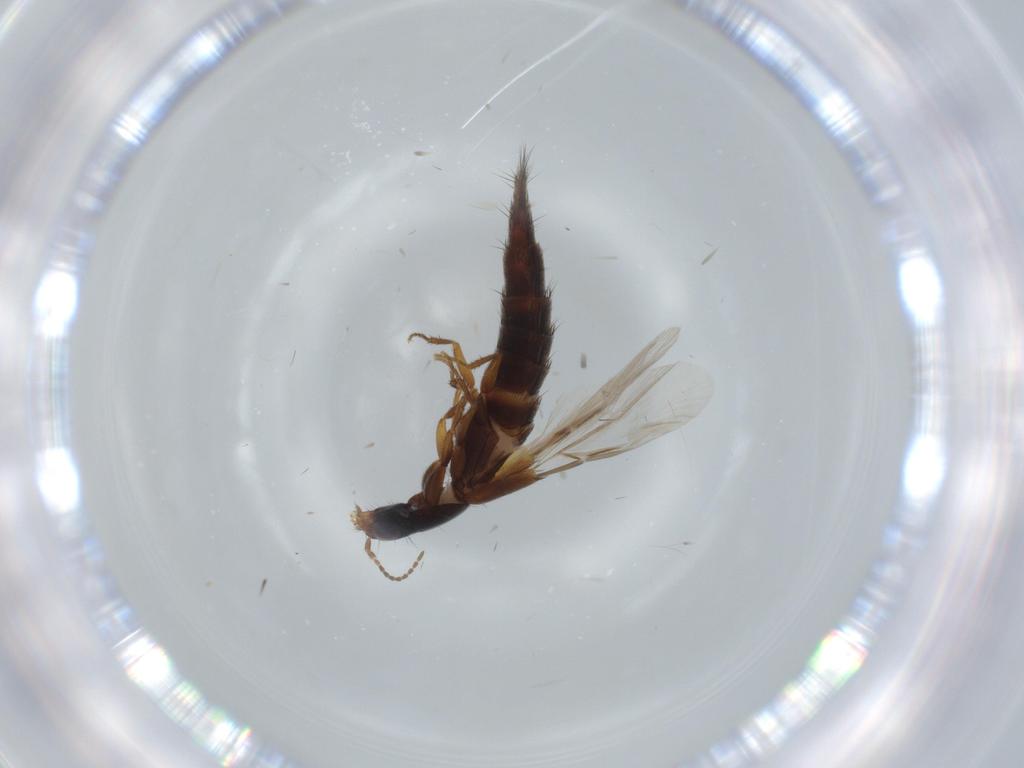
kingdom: Animalia
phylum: Arthropoda
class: Insecta
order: Coleoptera
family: Staphylinidae
